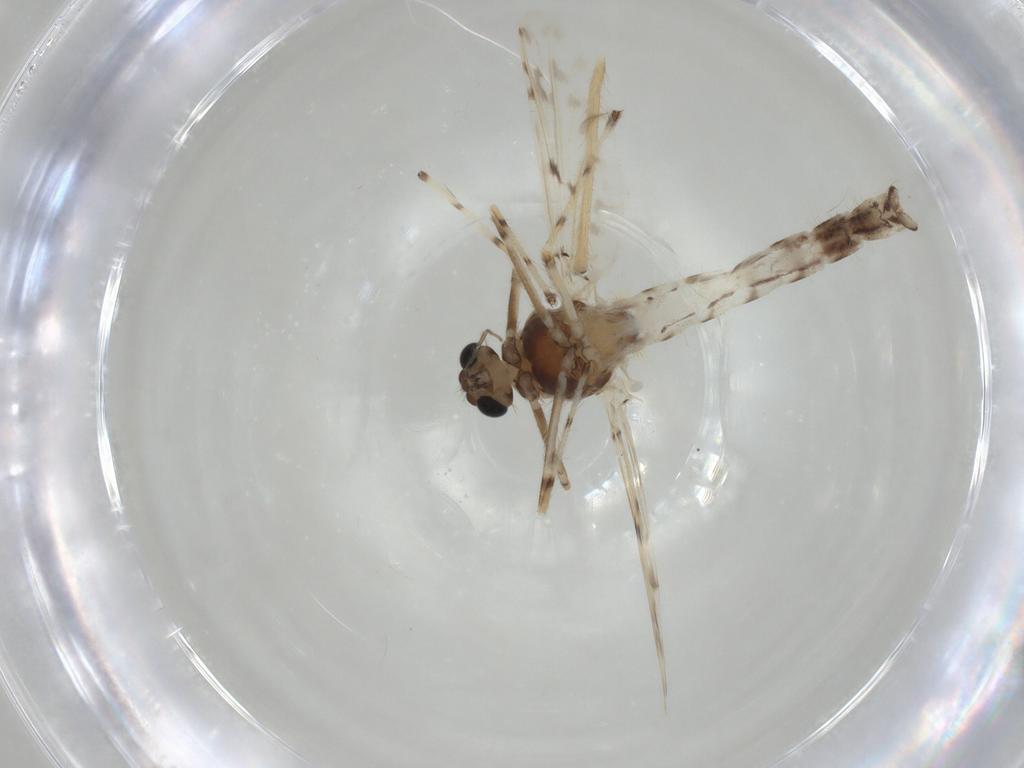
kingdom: Animalia
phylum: Arthropoda
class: Insecta
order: Diptera
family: Chironomidae
